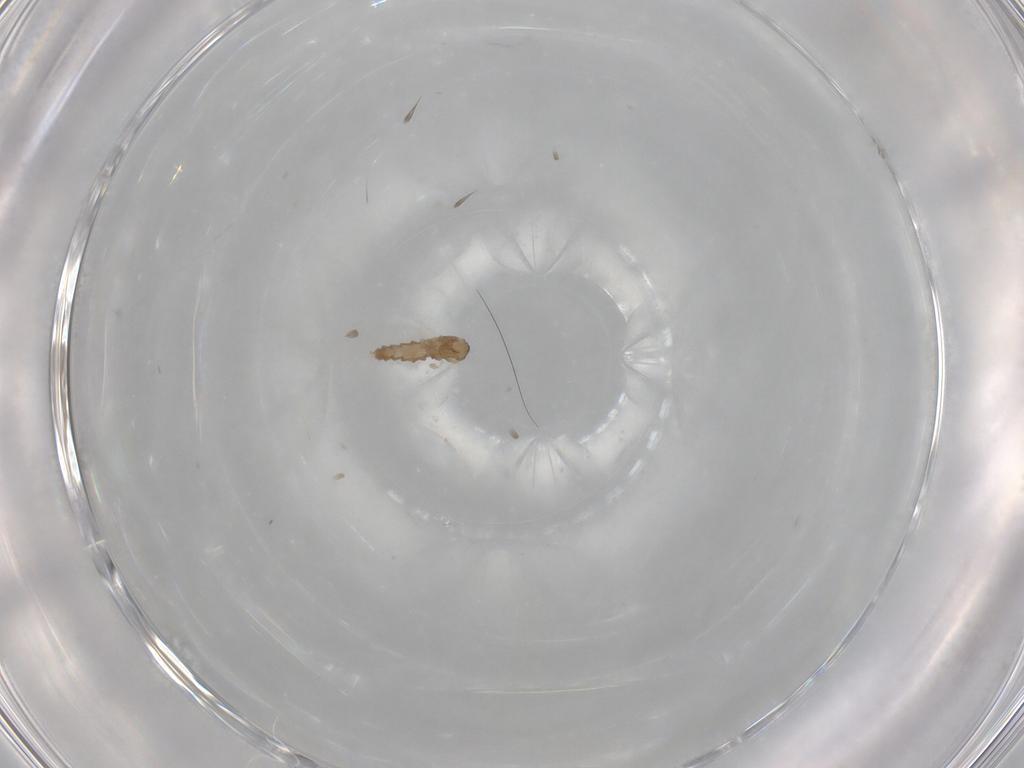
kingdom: Animalia
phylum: Arthropoda
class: Insecta
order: Diptera
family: Cecidomyiidae
